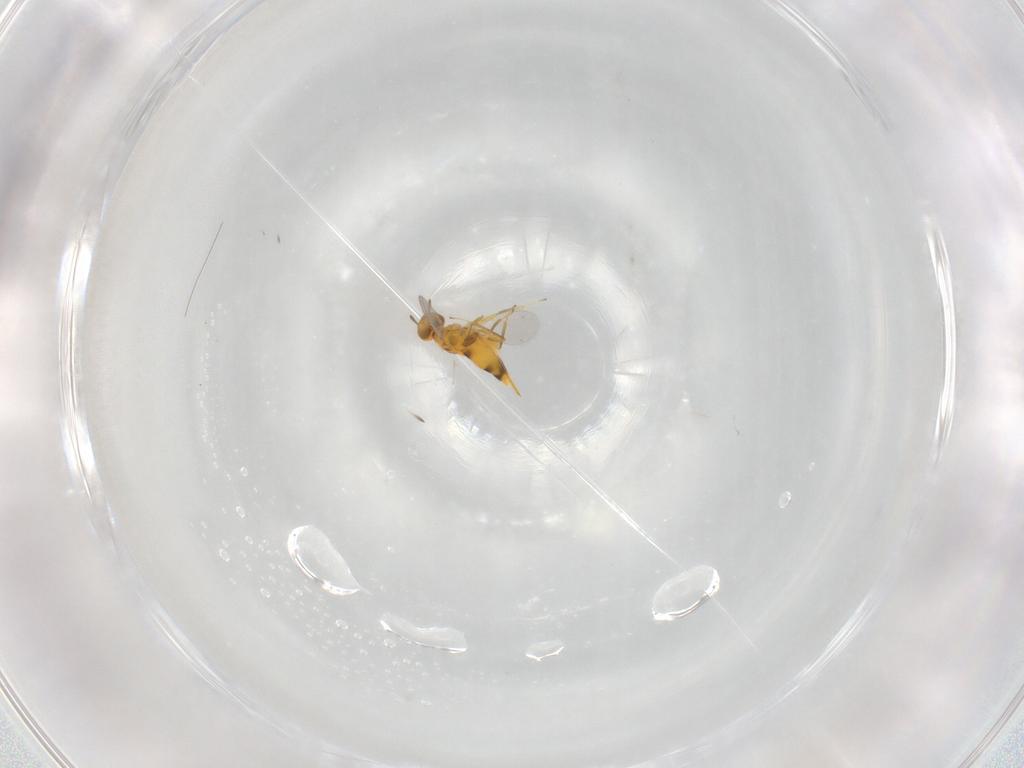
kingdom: Animalia
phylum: Arthropoda
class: Insecta
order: Hymenoptera
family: Aphelinidae
